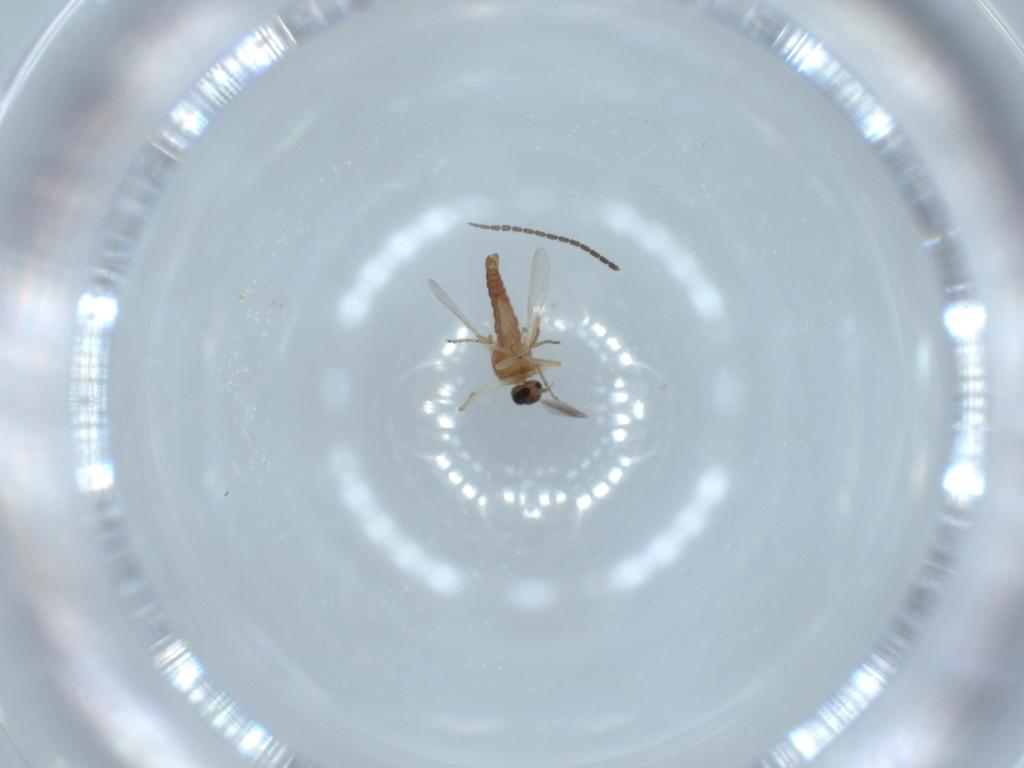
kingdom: Animalia
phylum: Arthropoda
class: Insecta
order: Diptera
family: Ceratopogonidae
